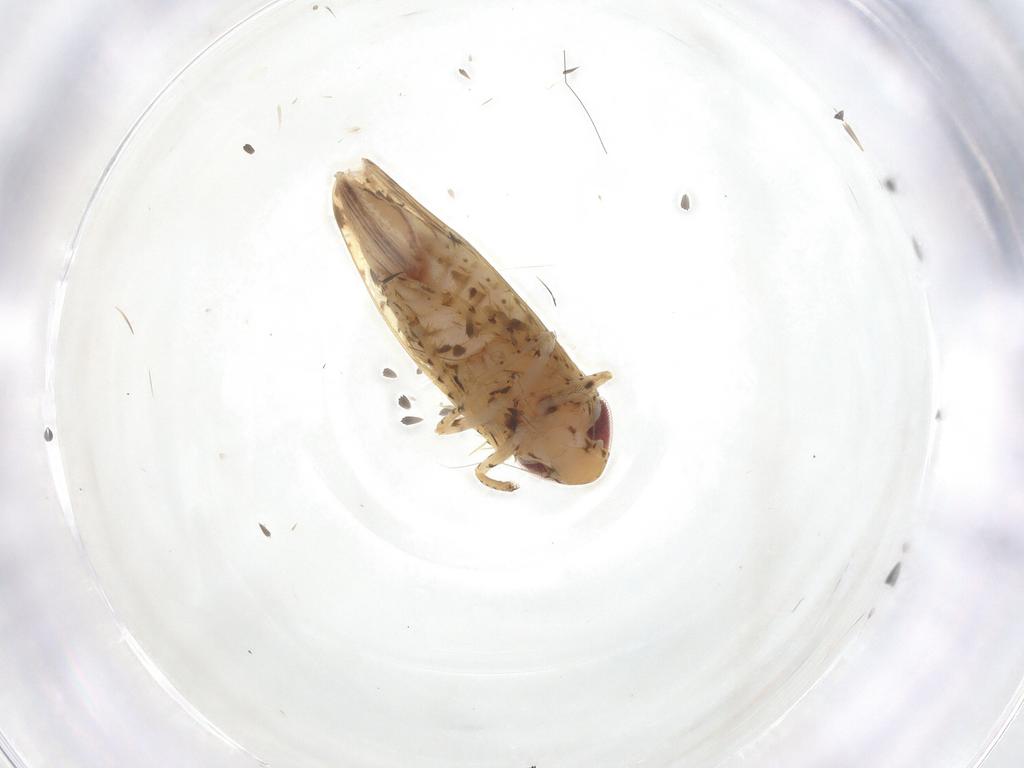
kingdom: Animalia
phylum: Arthropoda
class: Insecta
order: Hemiptera
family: Cicadellidae
